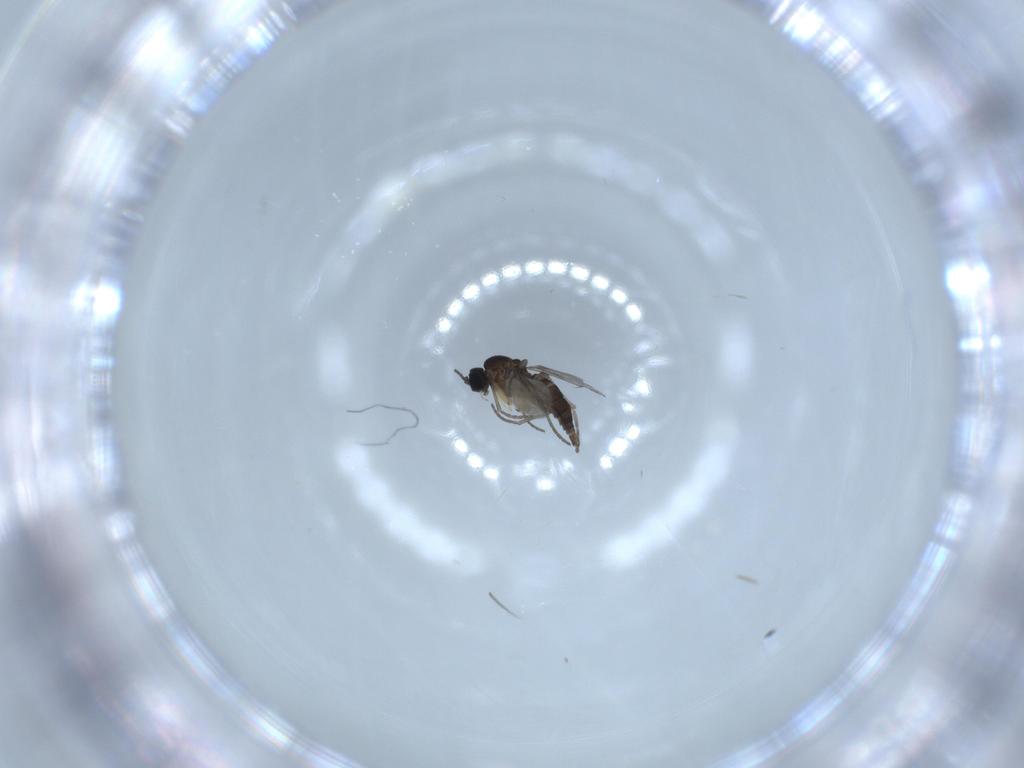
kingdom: Animalia
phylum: Arthropoda
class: Insecta
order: Diptera
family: Sciaridae
